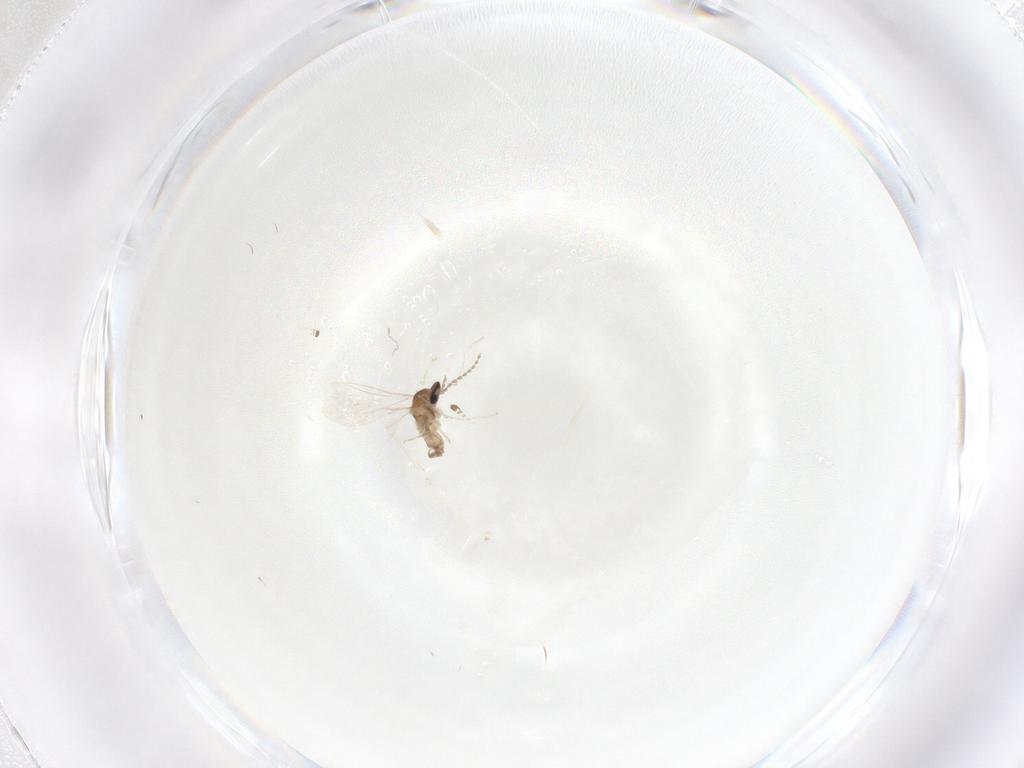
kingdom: Animalia
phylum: Arthropoda
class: Insecta
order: Diptera
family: Cecidomyiidae
